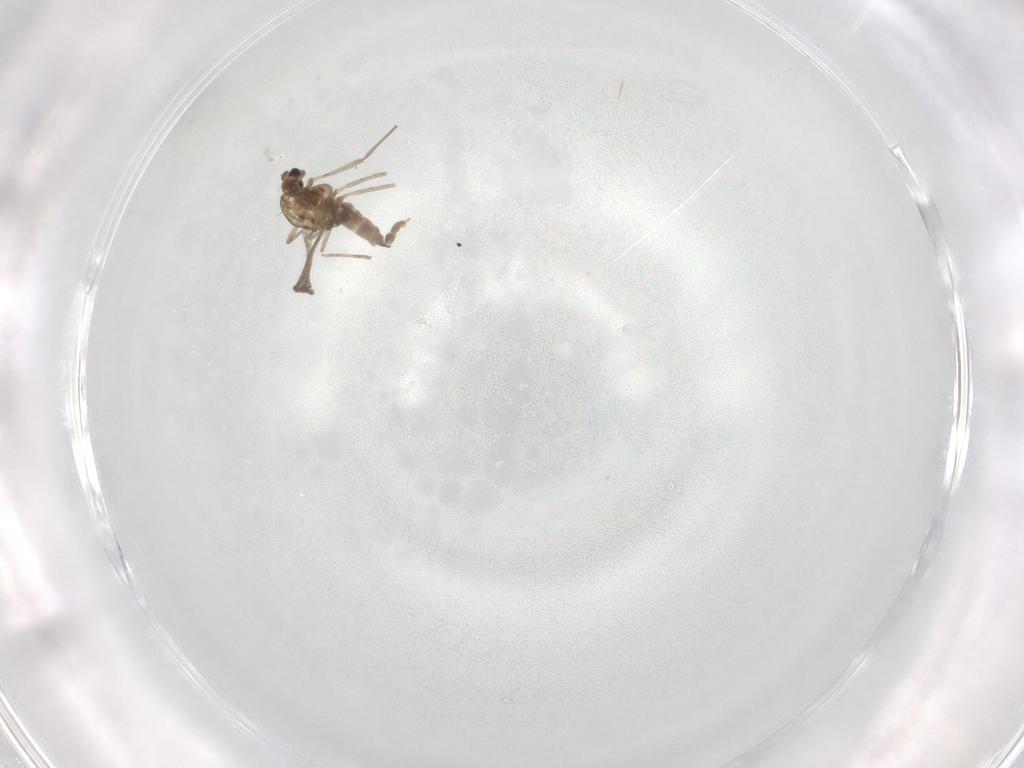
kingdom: Animalia
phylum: Arthropoda
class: Insecta
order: Diptera
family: Chironomidae
